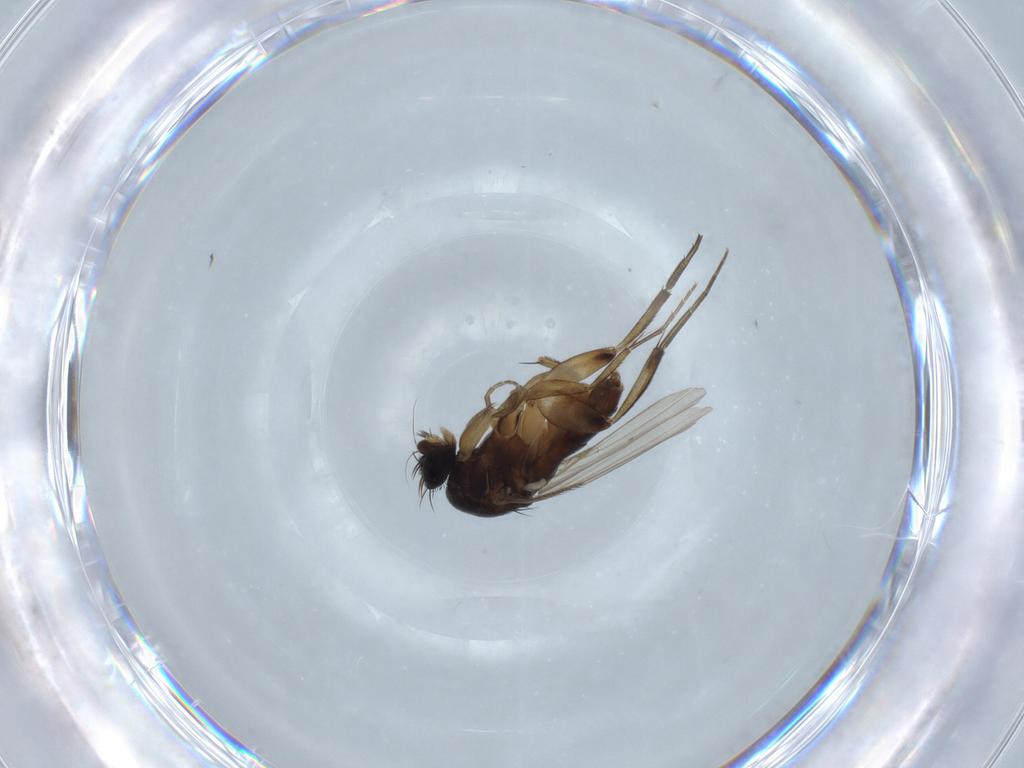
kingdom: Animalia
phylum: Arthropoda
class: Insecta
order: Diptera
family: Phoridae
